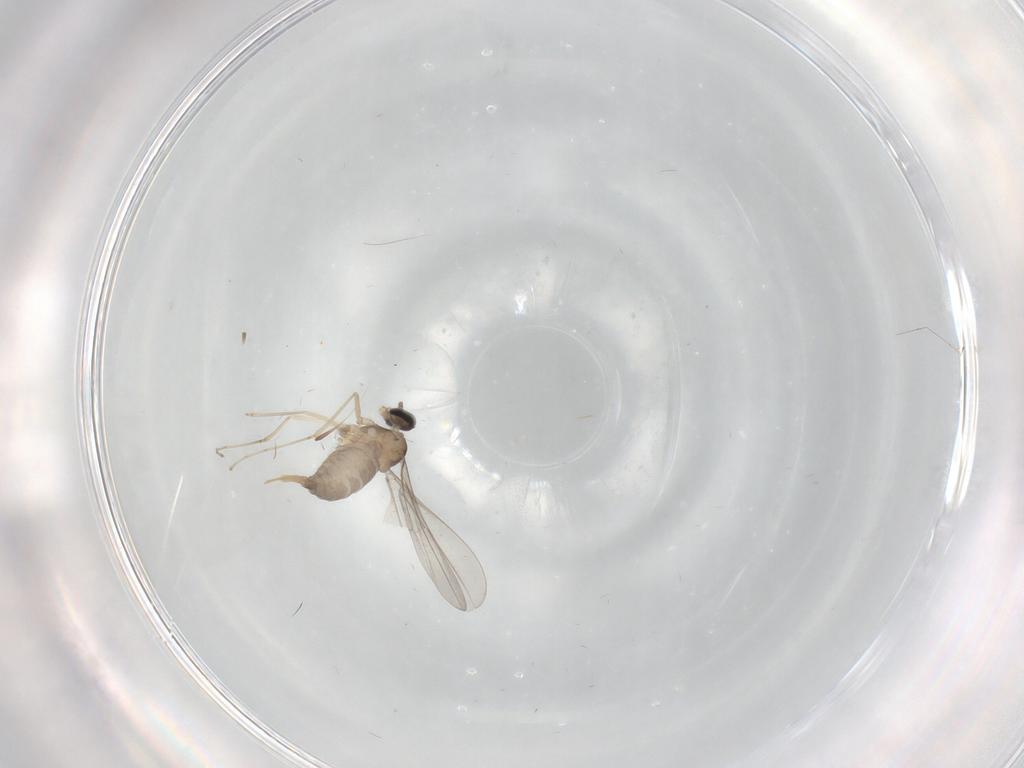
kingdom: Animalia
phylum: Arthropoda
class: Insecta
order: Diptera
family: Cecidomyiidae
